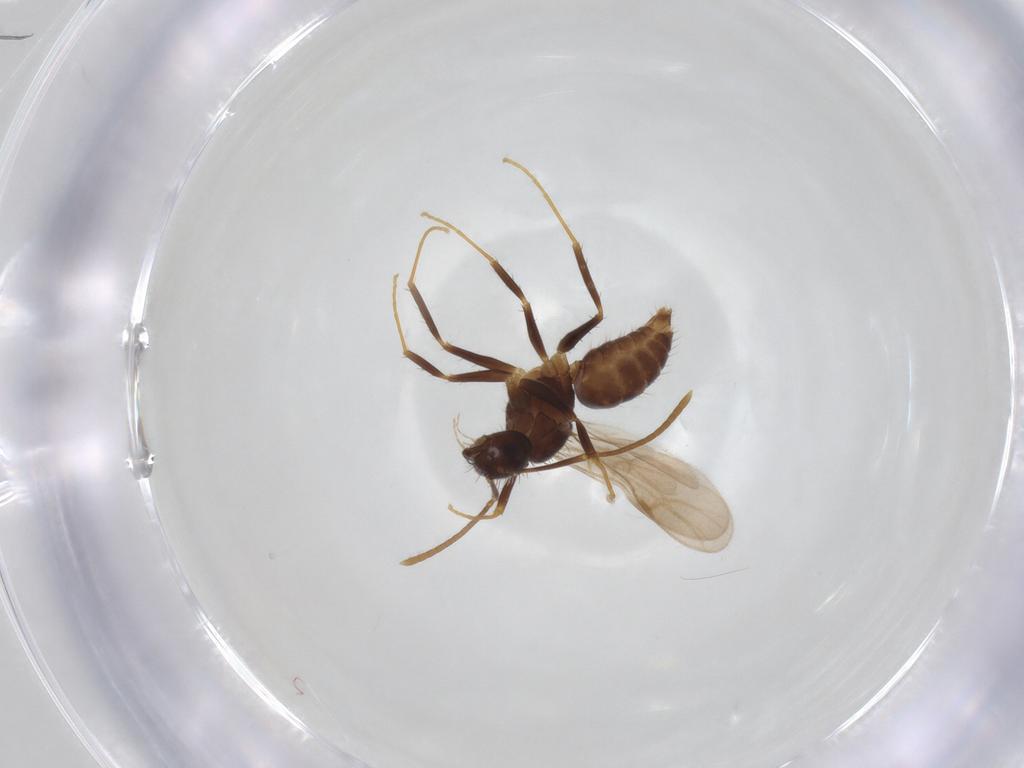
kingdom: Animalia
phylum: Arthropoda
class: Insecta
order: Hymenoptera
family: Formicidae
